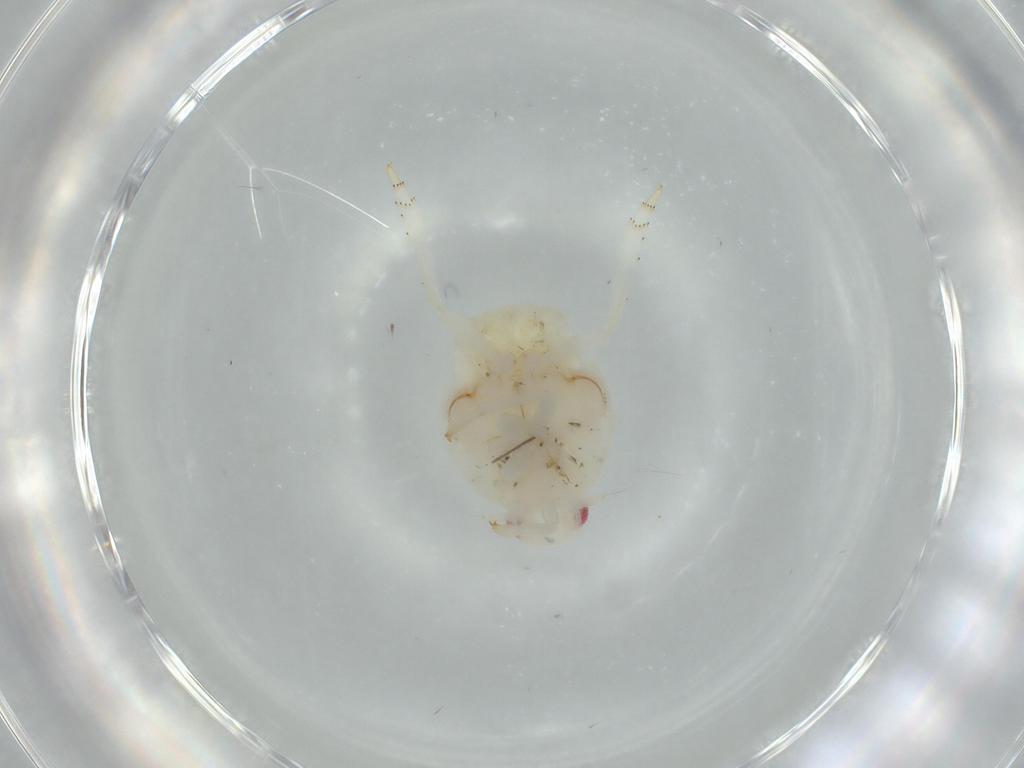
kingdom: Animalia
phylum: Arthropoda
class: Insecta
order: Hemiptera
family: Flatidae
